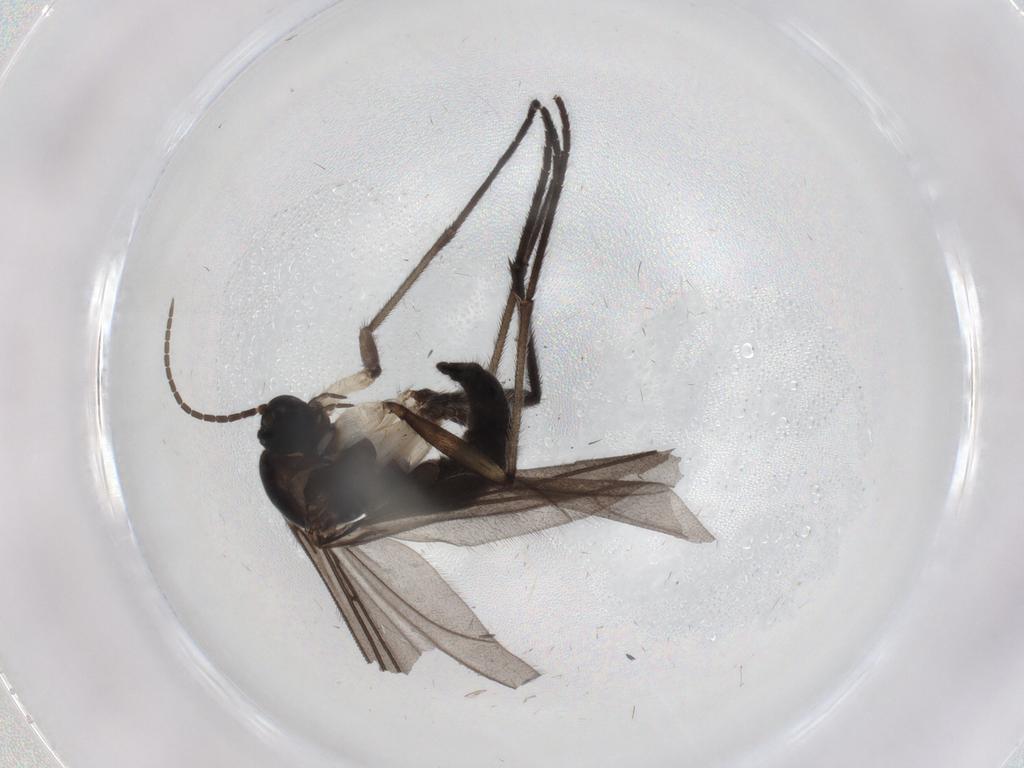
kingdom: Animalia
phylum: Arthropoda
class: Insecta
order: Diptera
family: Sciaridae
